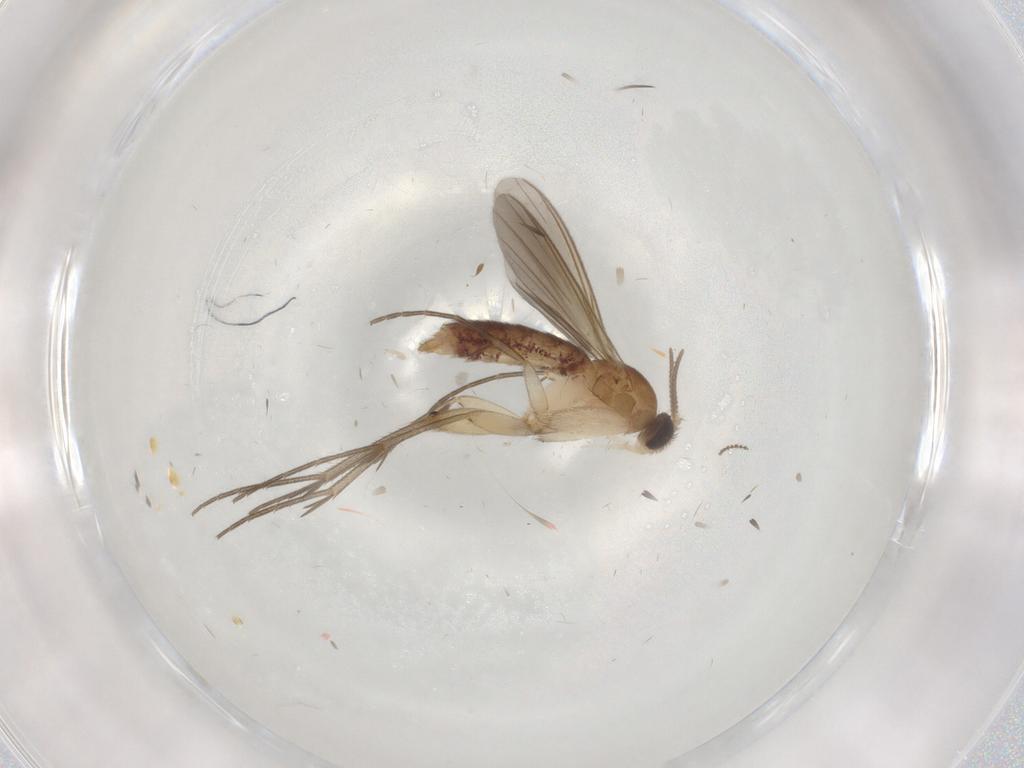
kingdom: Animalia
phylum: Arthropoda
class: Insecta
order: Diptera
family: Mycetophilidae
